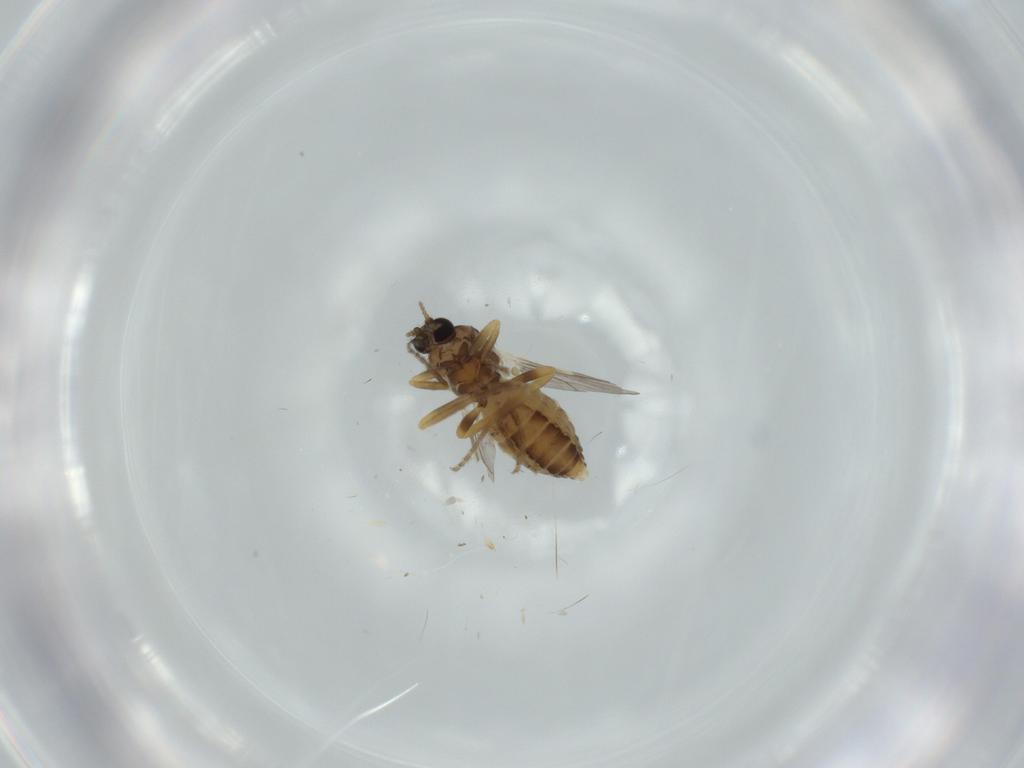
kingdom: Animalia
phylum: Arthropoda
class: Insecta
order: Diptera
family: Ceratopogonidae
